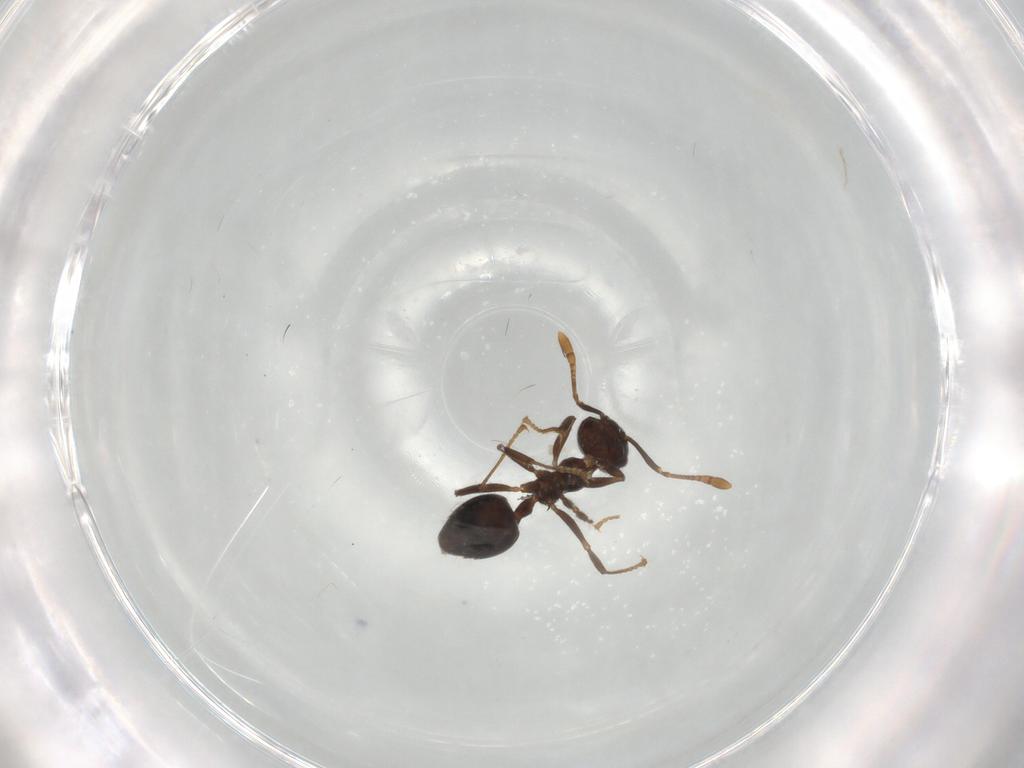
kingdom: Animalia
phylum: Arthropoda
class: Insecta
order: Hymenoptera
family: Formicidae
